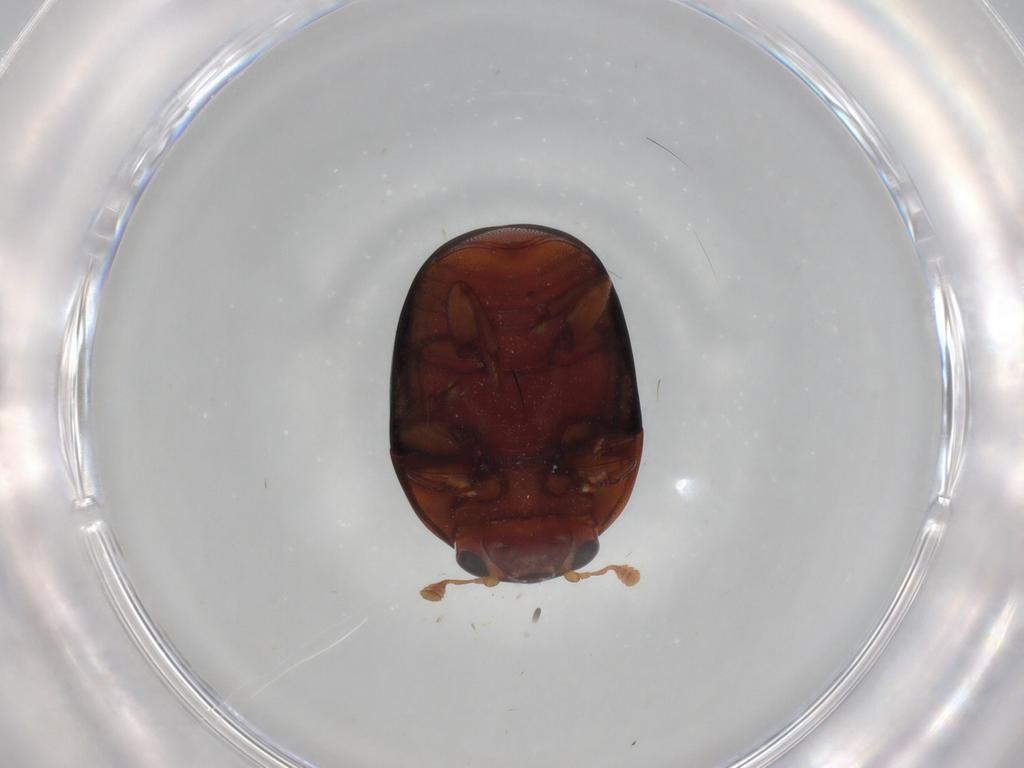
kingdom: Animalia
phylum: Arthropoda
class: Insecta
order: Coleoptera
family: Nitidulidae
